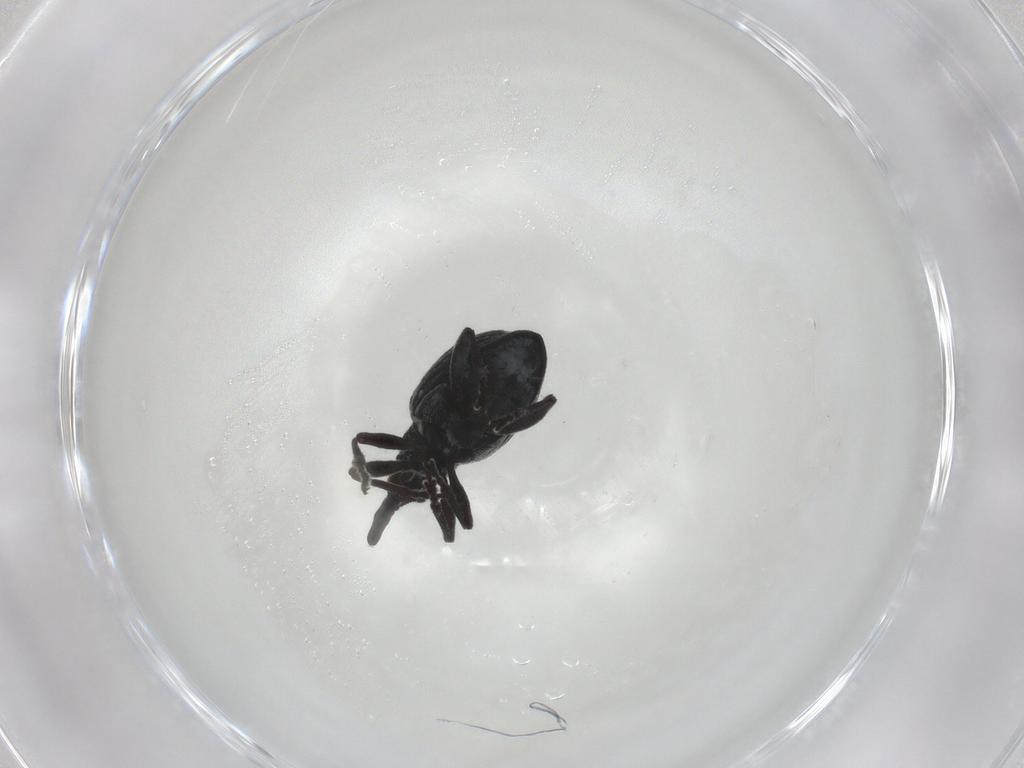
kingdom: Animalia
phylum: Arthropoda
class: Insecta
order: Coleoptera
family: Brentidae
